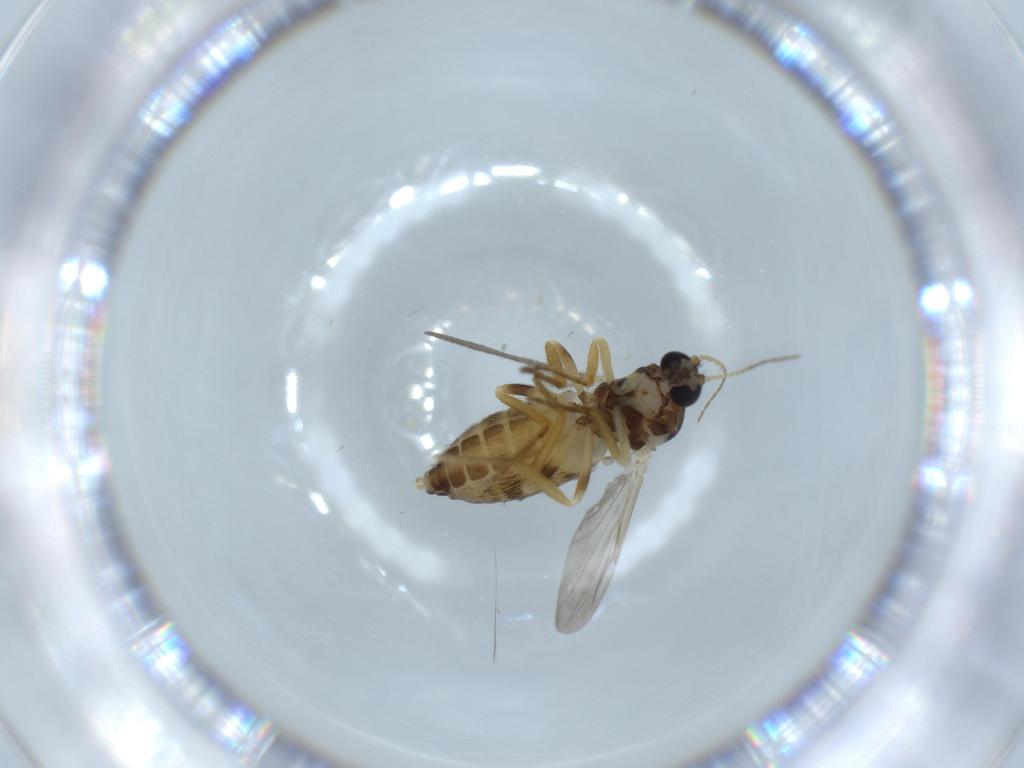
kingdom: Animalia
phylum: Arthropoda
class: Insecta
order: Diptera
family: Ceratopogonidae
